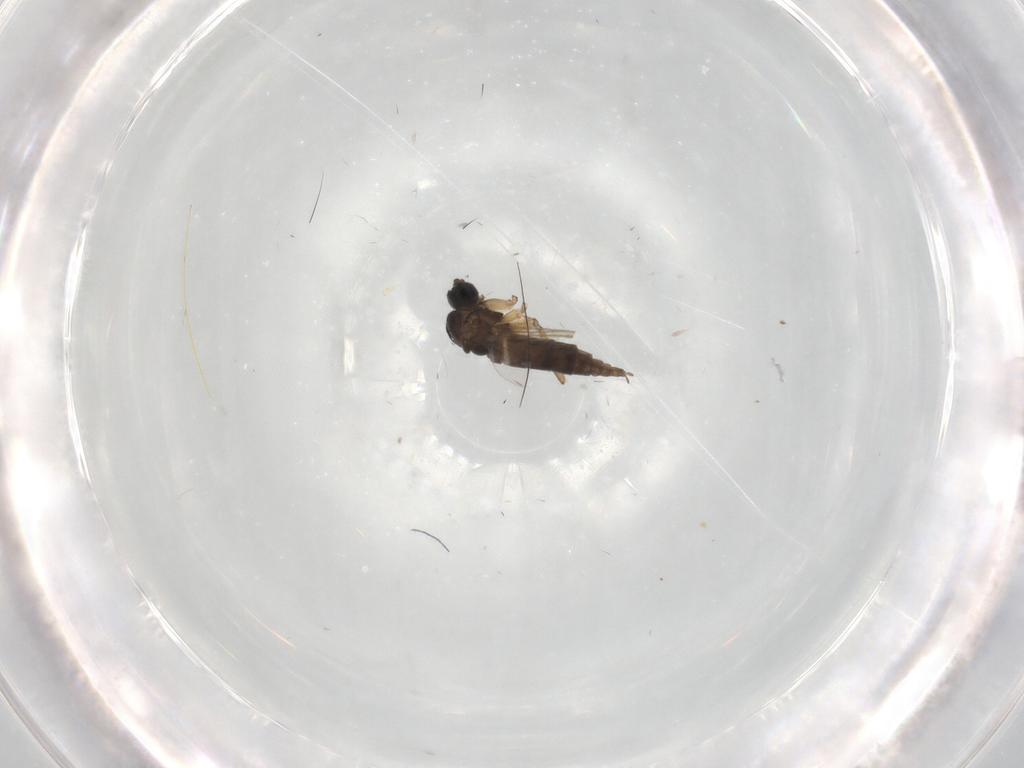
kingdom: Animalia
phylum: Arthropoda
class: Insecta
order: Diptera
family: Sciaridae
